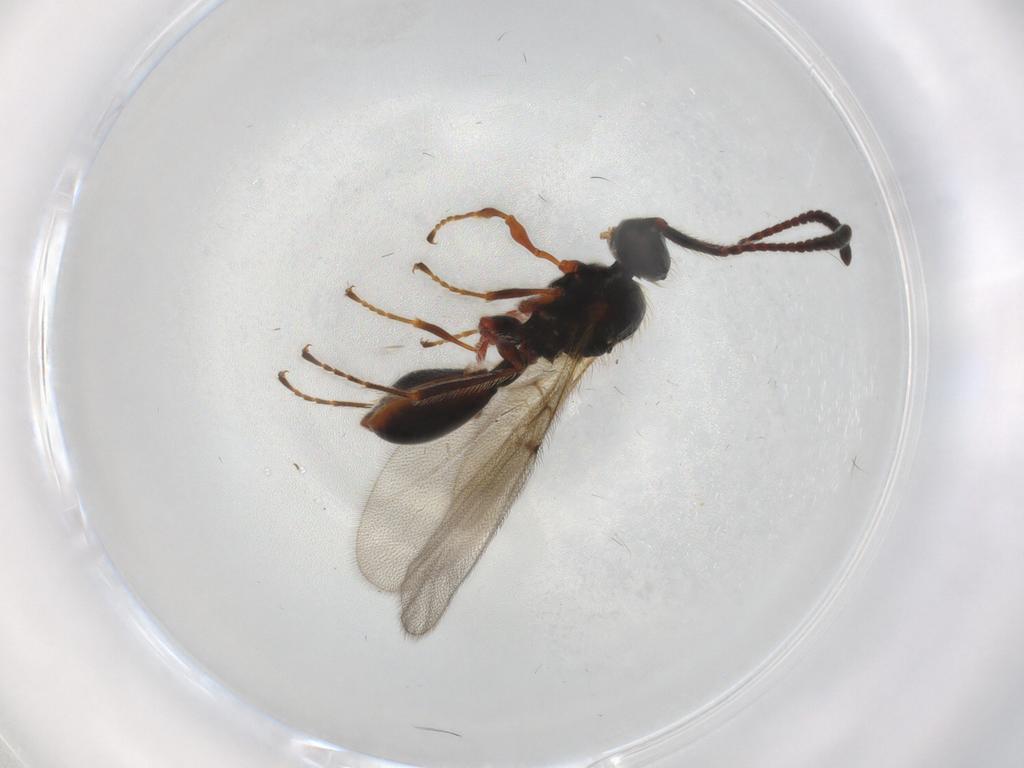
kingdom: Animalia
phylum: Arthropoda
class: Insecta
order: Hymenoptera
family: Diapriidae
